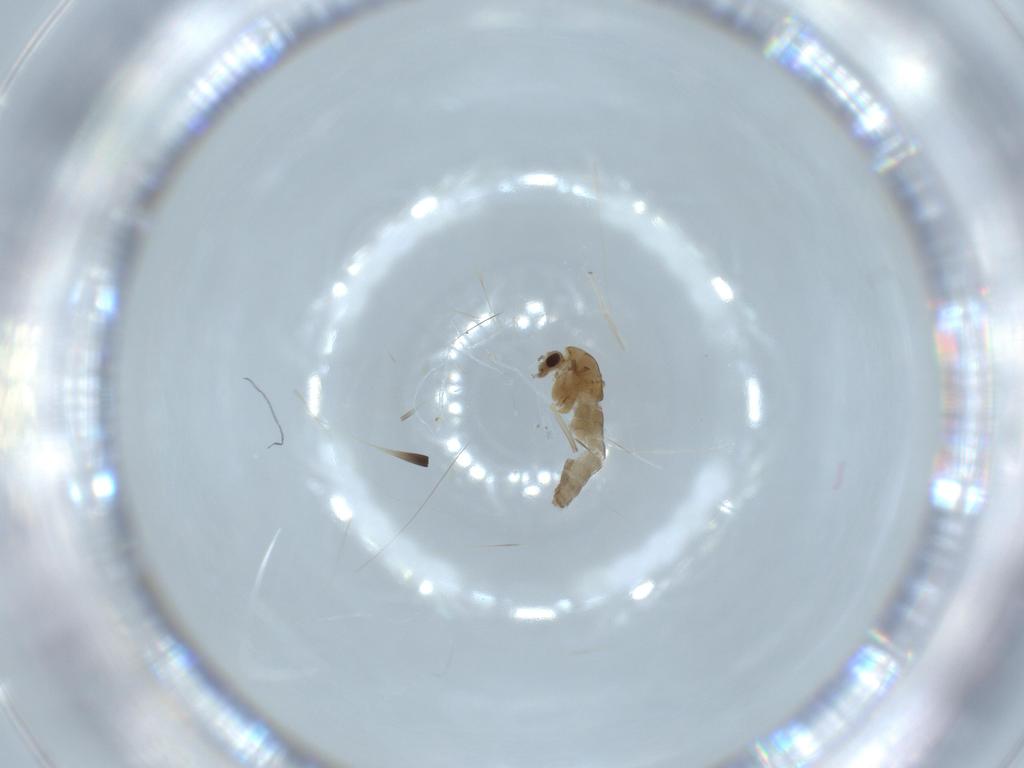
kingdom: Animalia
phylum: Arthropoda
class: Insecta
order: Diptera
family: Chironomidae
